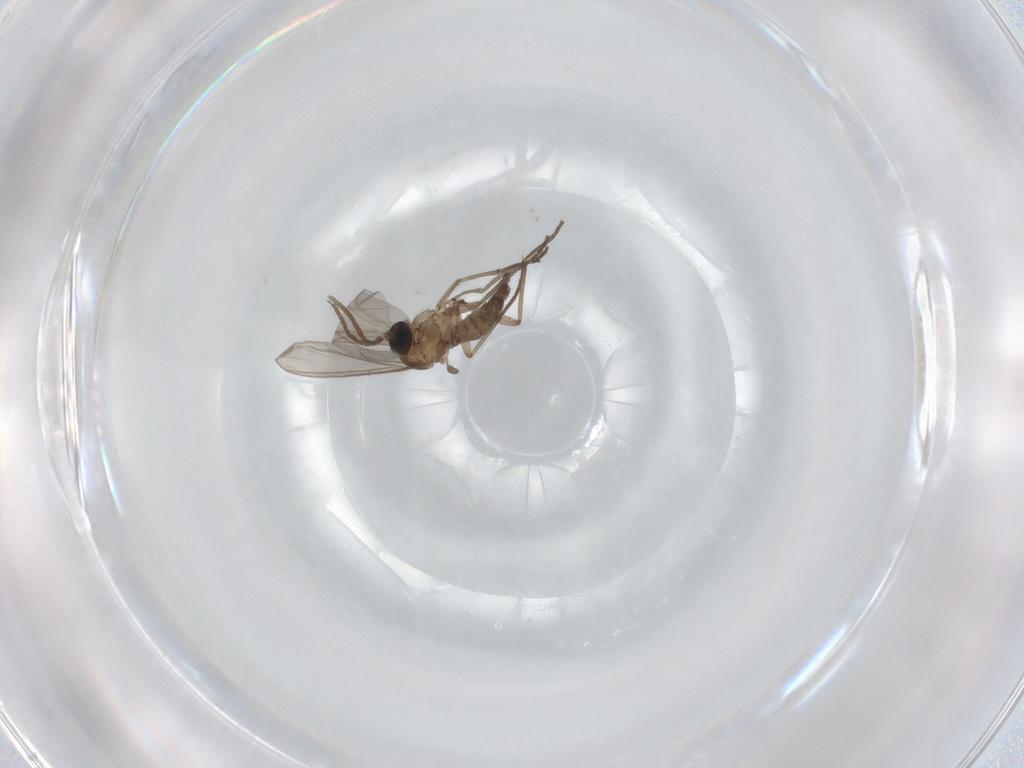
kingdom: Animalia
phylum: Arthropoda
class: Insecta
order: Diptera
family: Sciaridae
